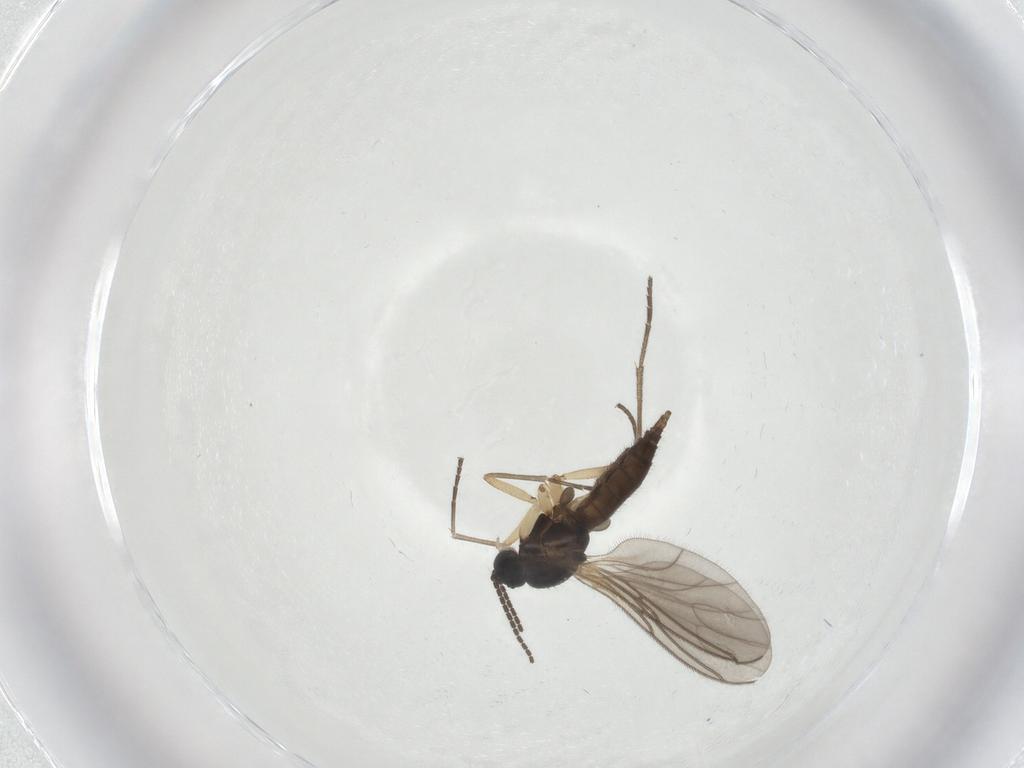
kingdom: Animalia
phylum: Arthropoda
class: Insecta
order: Diptera
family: Sciaridae
